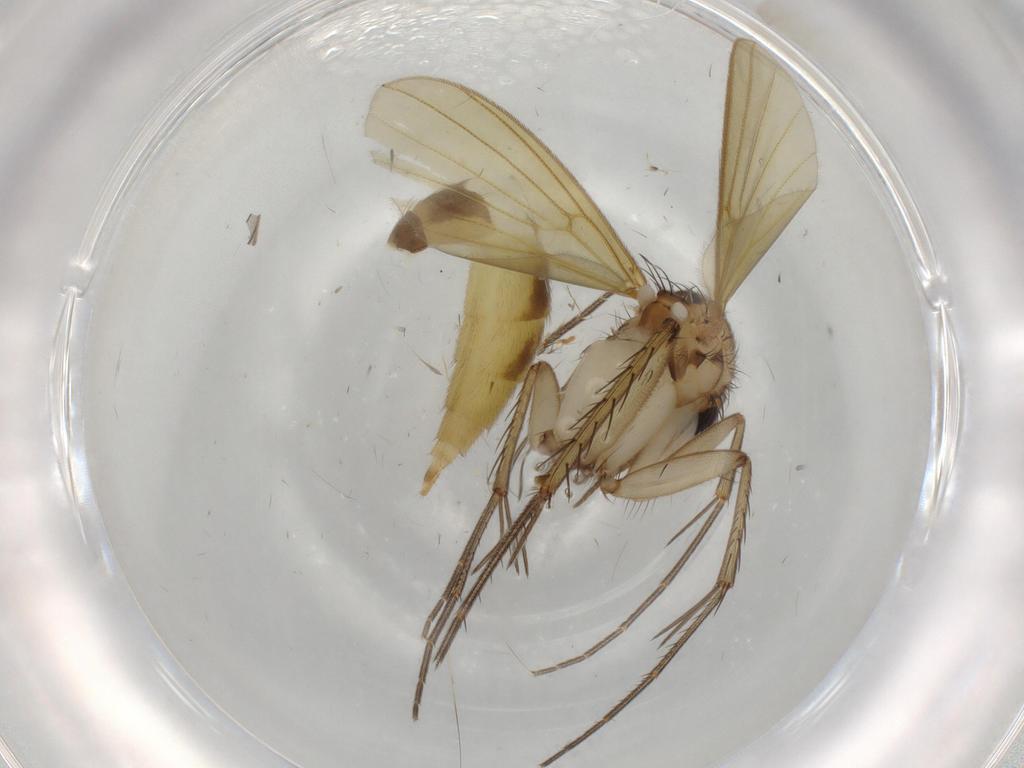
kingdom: Animalia
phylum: Arthropoda
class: Insecta
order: Diptera
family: Mycetophilidae
